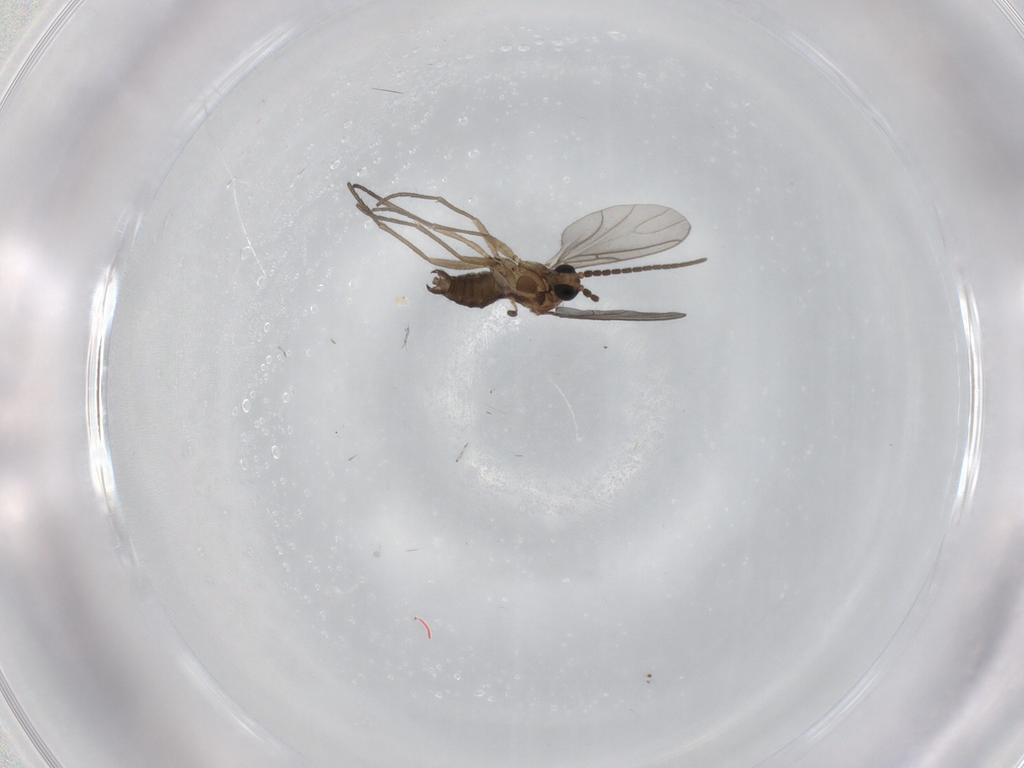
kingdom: Animalia
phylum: Arthropoda
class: Insecta
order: Diptera
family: Sciaridae
